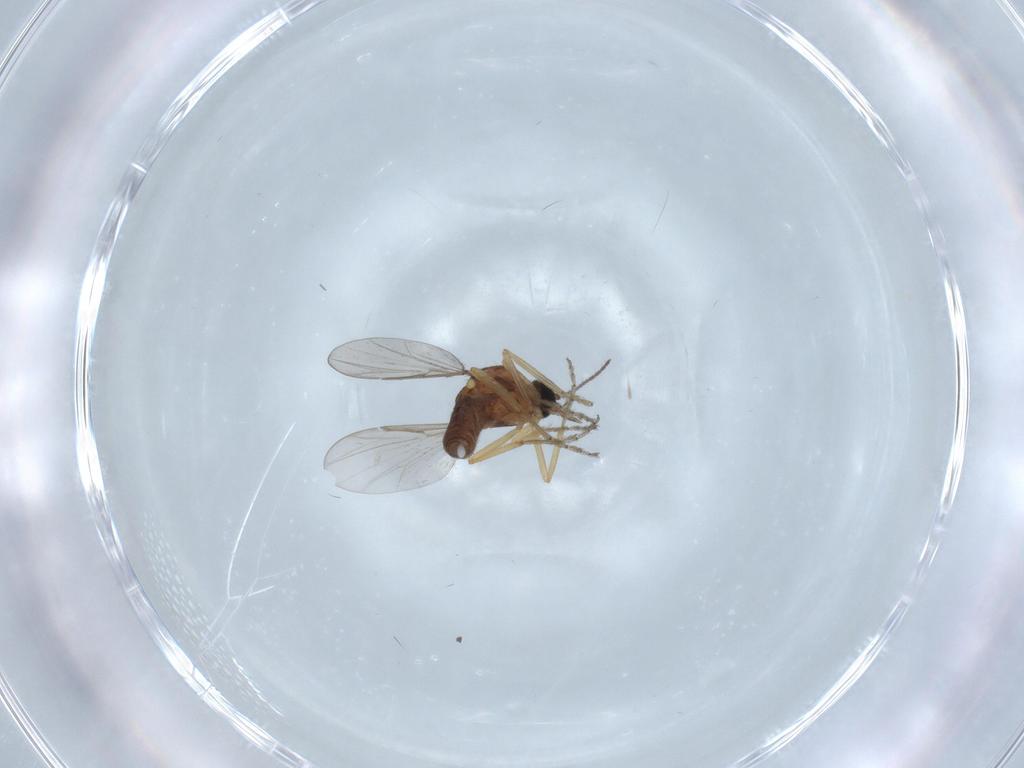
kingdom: Animalia
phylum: Arthropoda
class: Insecta
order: Diptera
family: Ceratopogonidae
